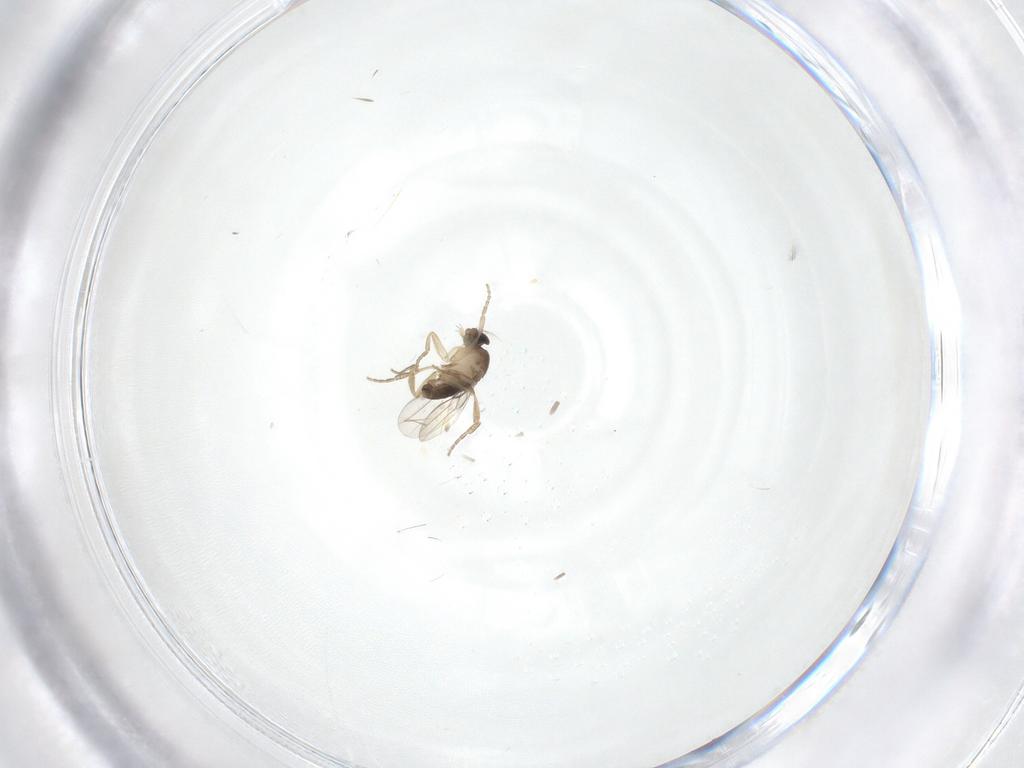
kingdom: Animalia
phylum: Arthropoda
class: Insecta
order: Diptera
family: Phoridae
